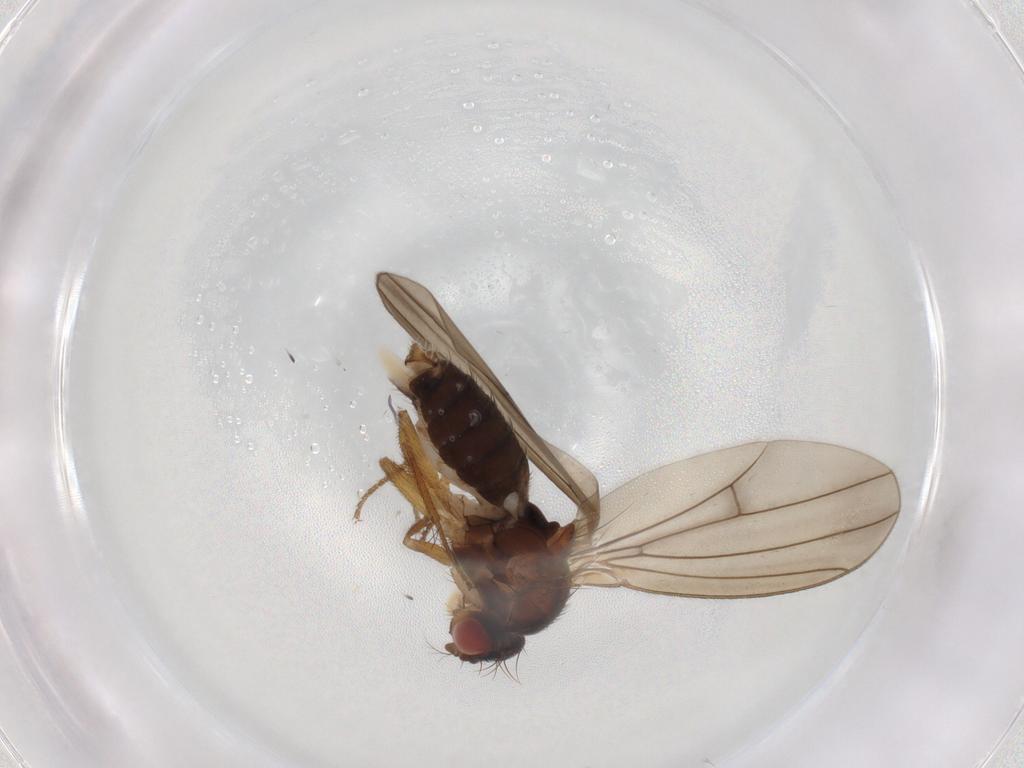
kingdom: Animalia
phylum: Arthropoda
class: Insecta
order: Diptera
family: Drosophilidae
